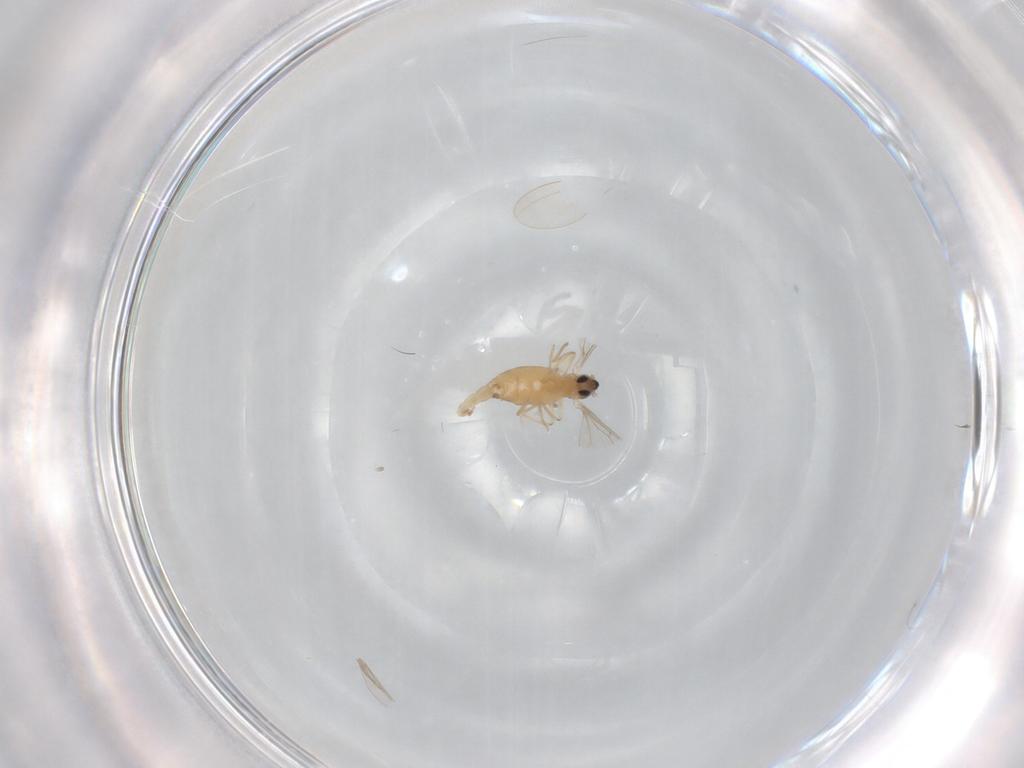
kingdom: Animalia
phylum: Arthropoda
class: Insecta
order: Diptera
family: Cecidomyiidae
